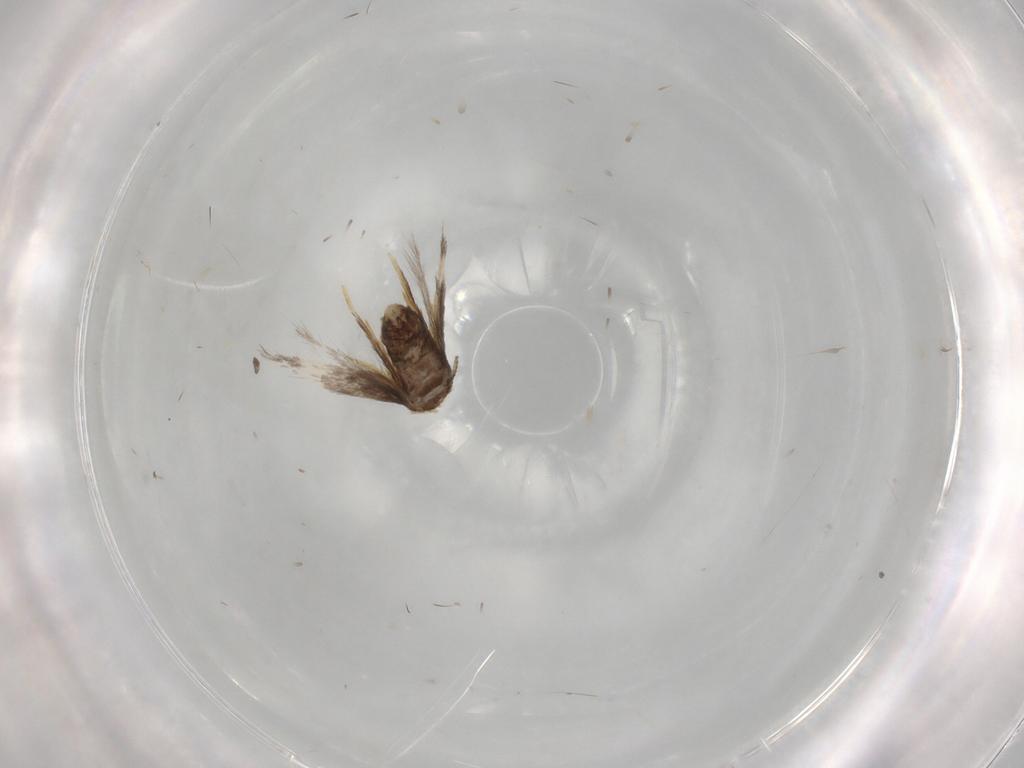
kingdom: Animalia
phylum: Arthropoda
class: Insecta
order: Lepidoptera
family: Nepticulidae
